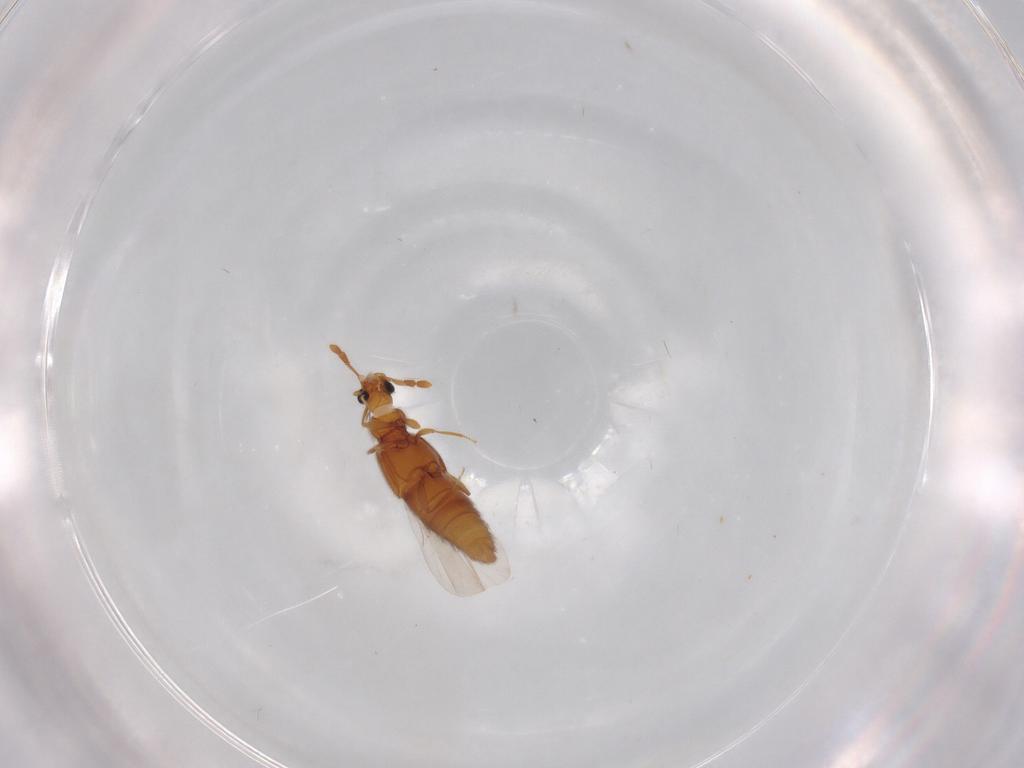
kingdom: Animalia
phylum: Arthropoda
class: Insecta
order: Coleoptera
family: Staphylinidae
